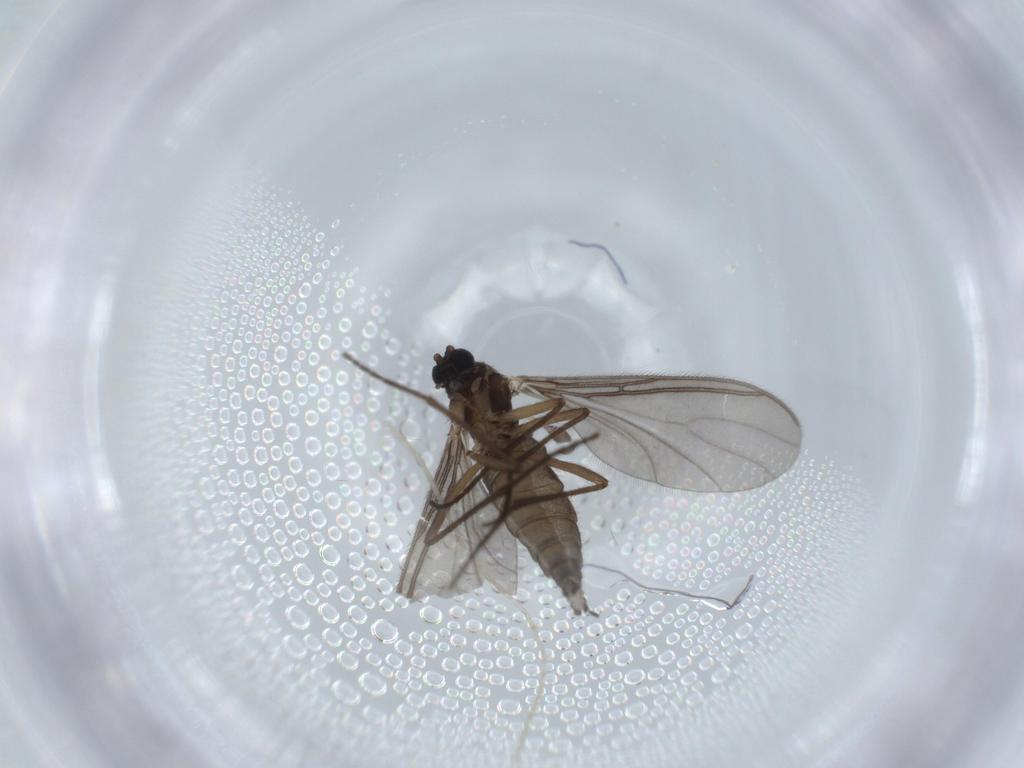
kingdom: Animalia
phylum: Arthropoda
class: Insecta
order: Diptera
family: Sciaridae
